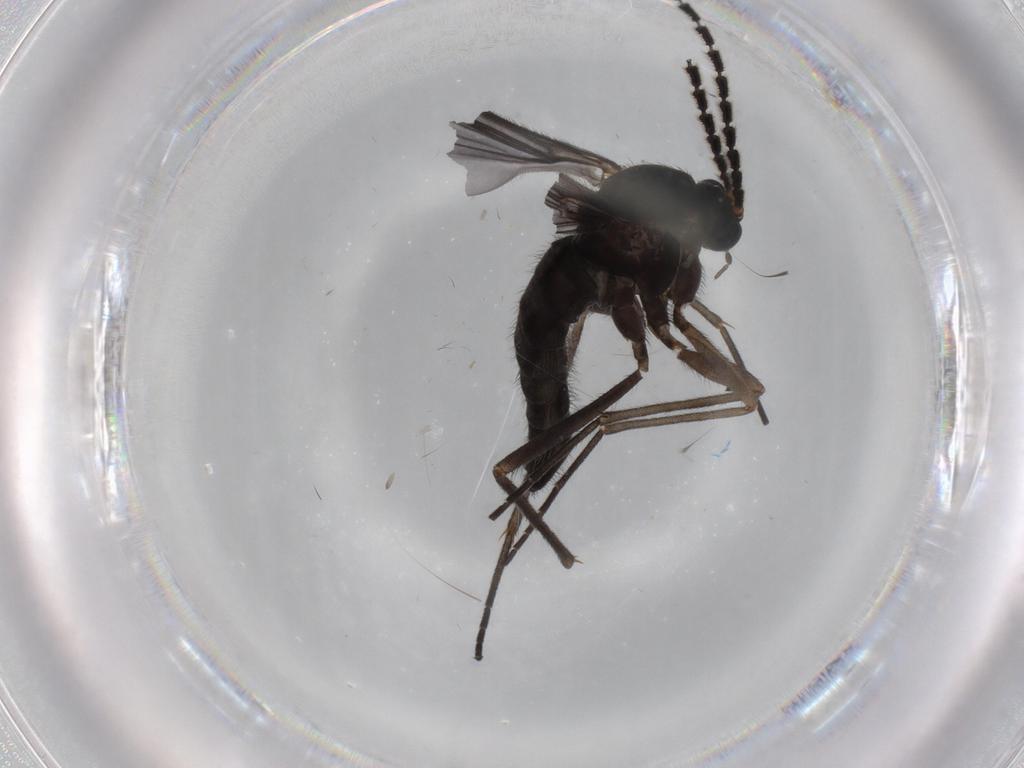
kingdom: Animalia
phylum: Arthropoda
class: Insecta
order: Diptera
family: Sciaridae
